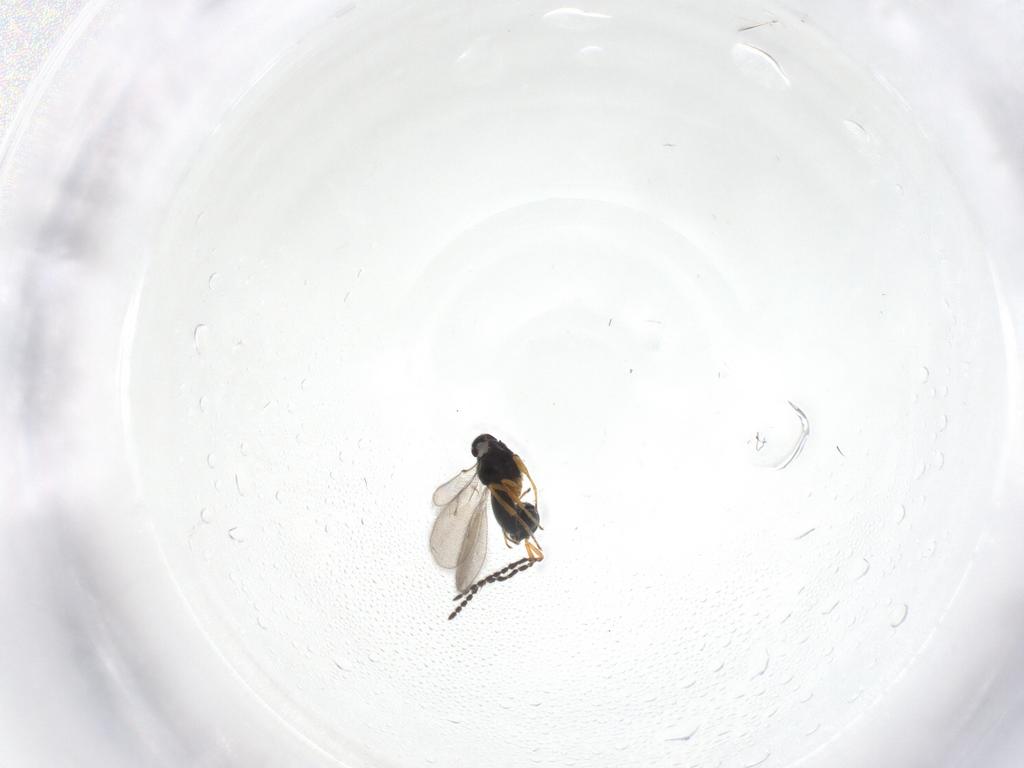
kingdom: Animalia
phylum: Arthropoda
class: Insecta
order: Hymenoptera
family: Scelionidae
